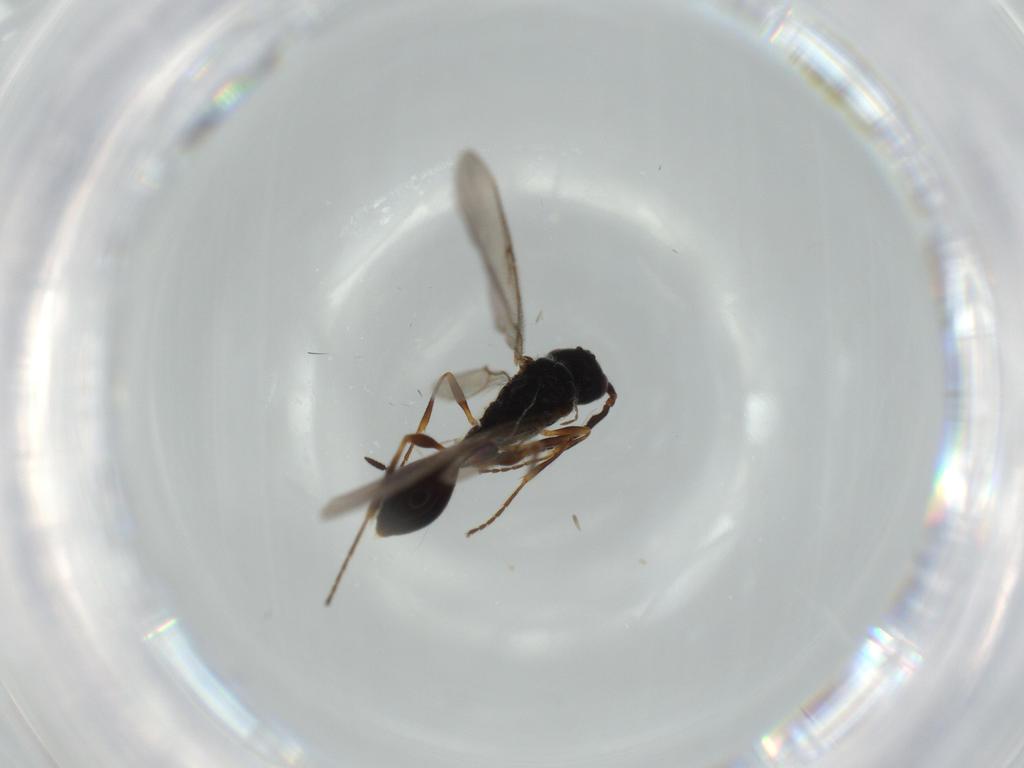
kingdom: Animalia
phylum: Arthropoda
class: Insecta
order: Hymenoptera
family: Diapriidae
